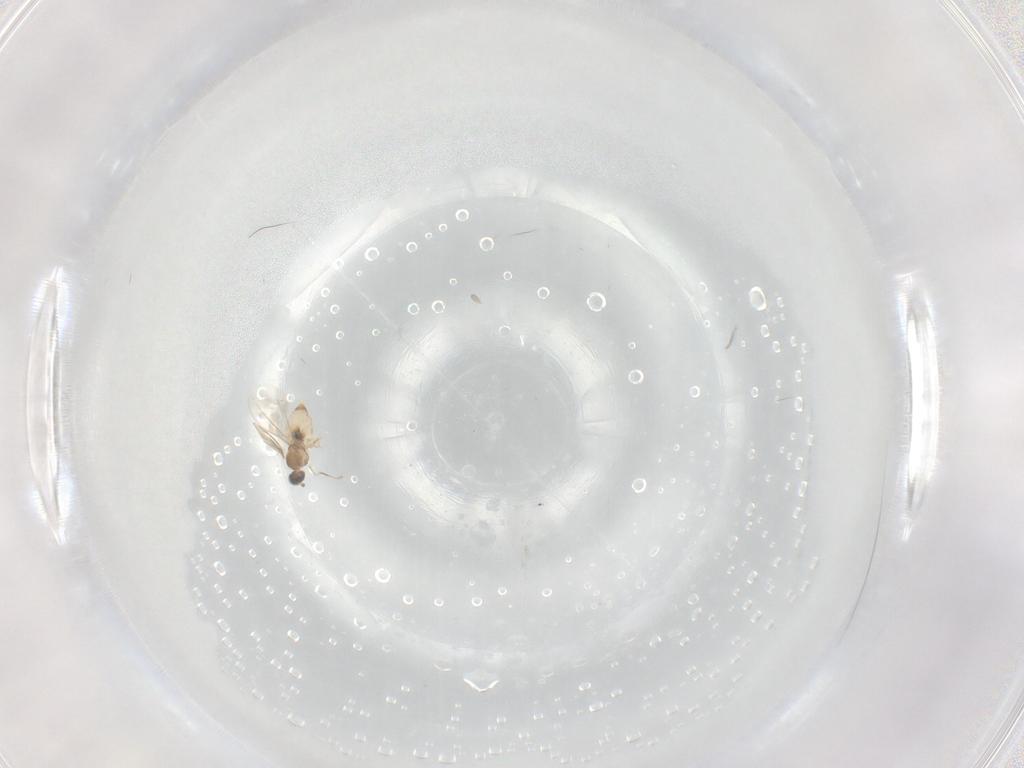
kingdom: Animalia
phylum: Arthropoda
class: Insecta
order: Diptera
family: Cecidomyiidae
